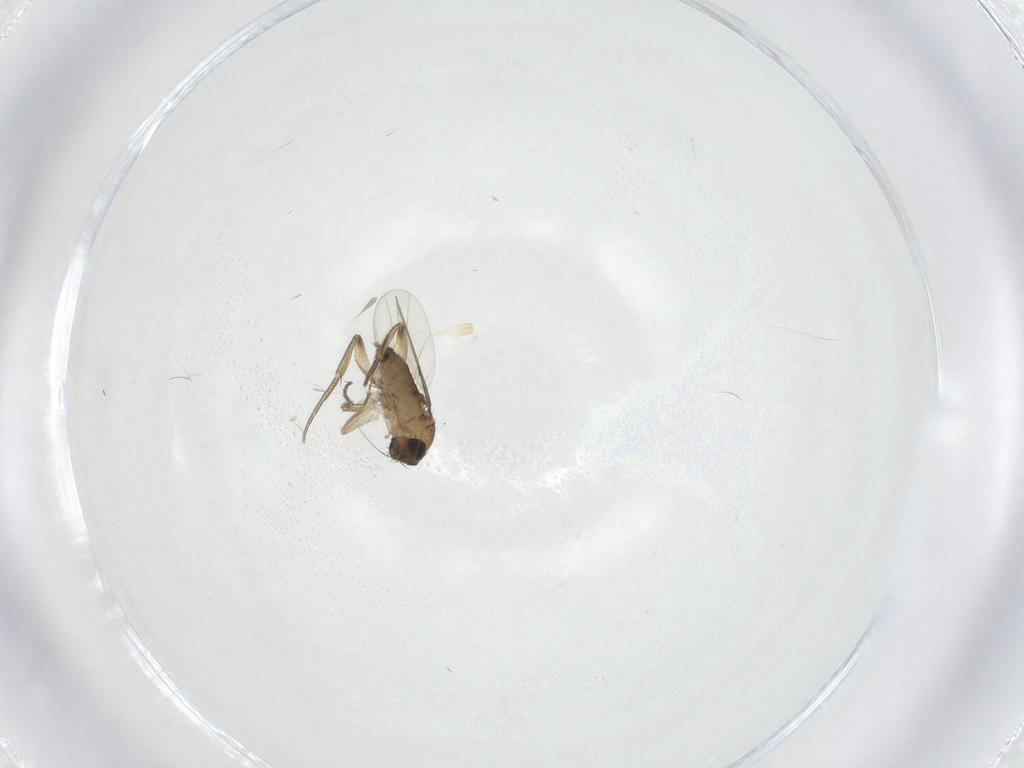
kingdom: Animalia
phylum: Arthropoda
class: Insecta
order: Diptera
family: Phoridae
